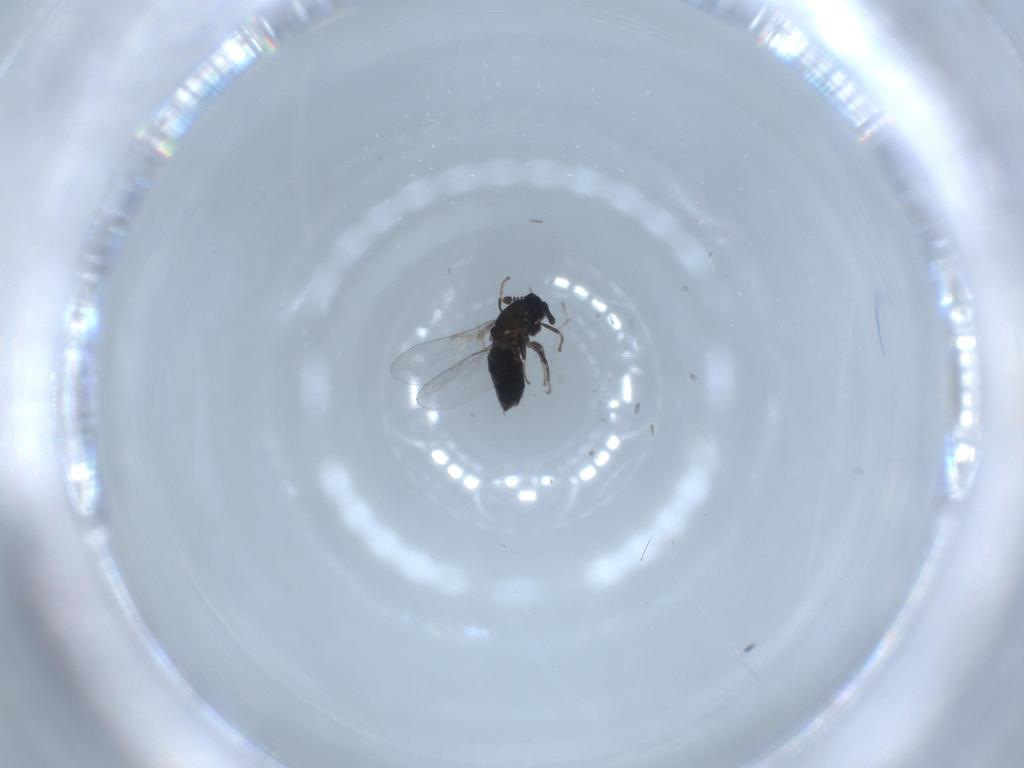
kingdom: Animalia
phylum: Arthropoda
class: Insecta
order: Diptera
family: Scatopsidae
